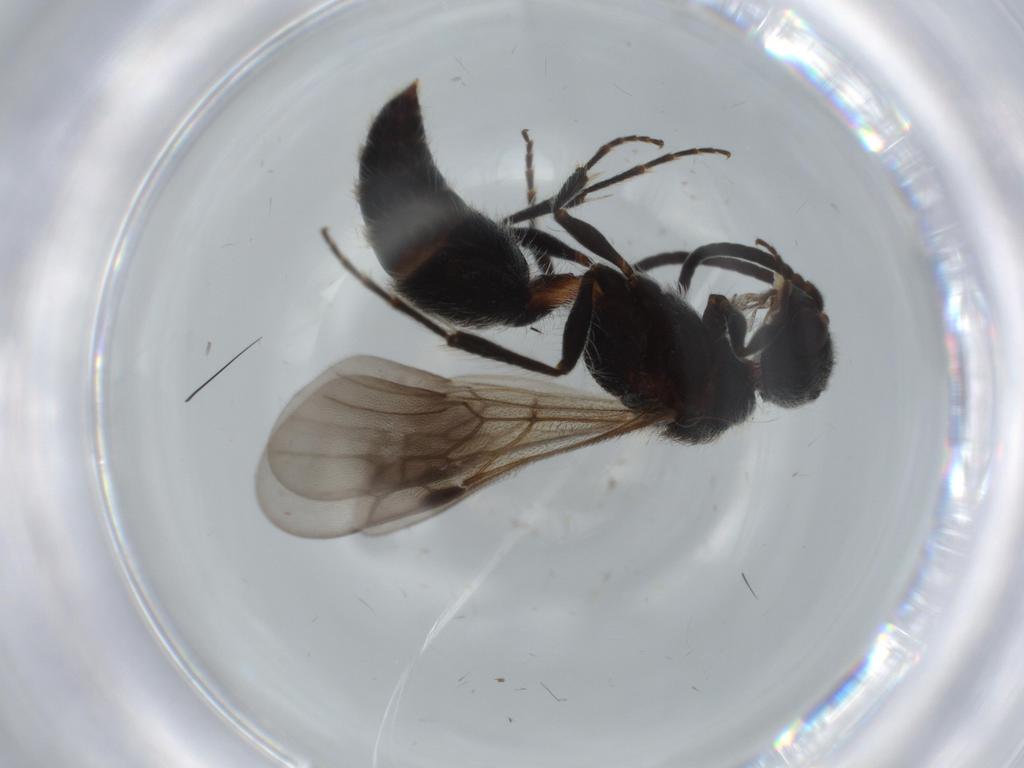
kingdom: Animalia
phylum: Arthropoda
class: Insecta
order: Hymenoptera
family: Mutillidae
